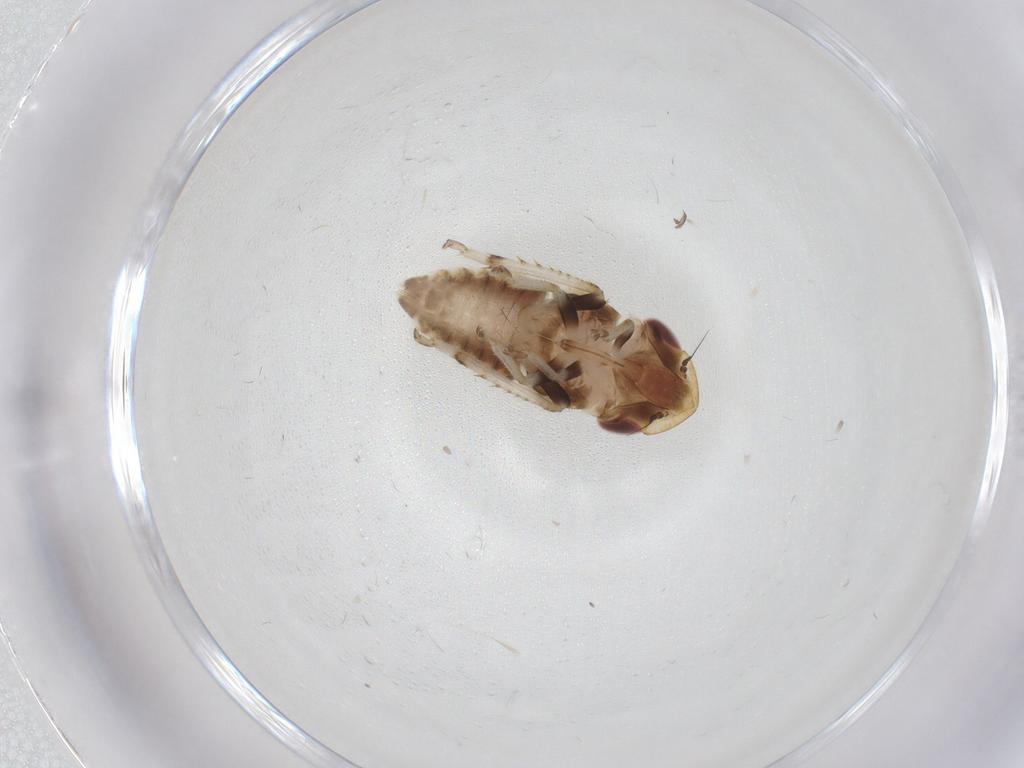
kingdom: Animalia
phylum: Arthropoda
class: Insecta
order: Hemiptera
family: Cicadellidae
